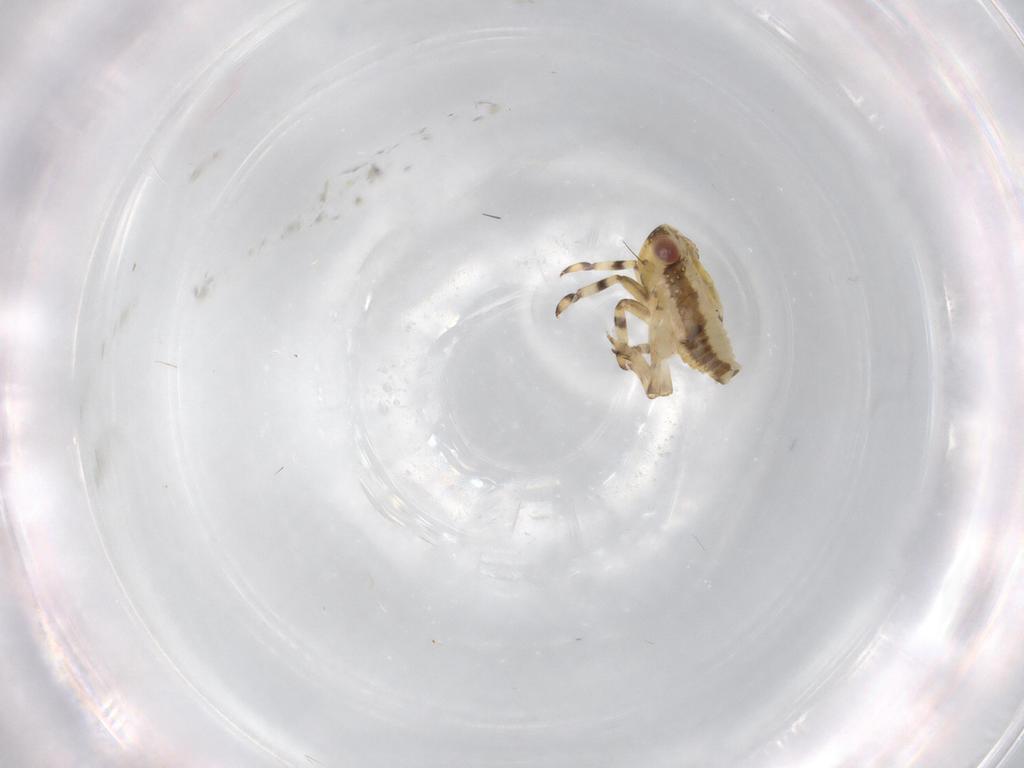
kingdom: Animalia
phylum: Arthropoda
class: Insecta
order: Hemiptera
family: Issidae
